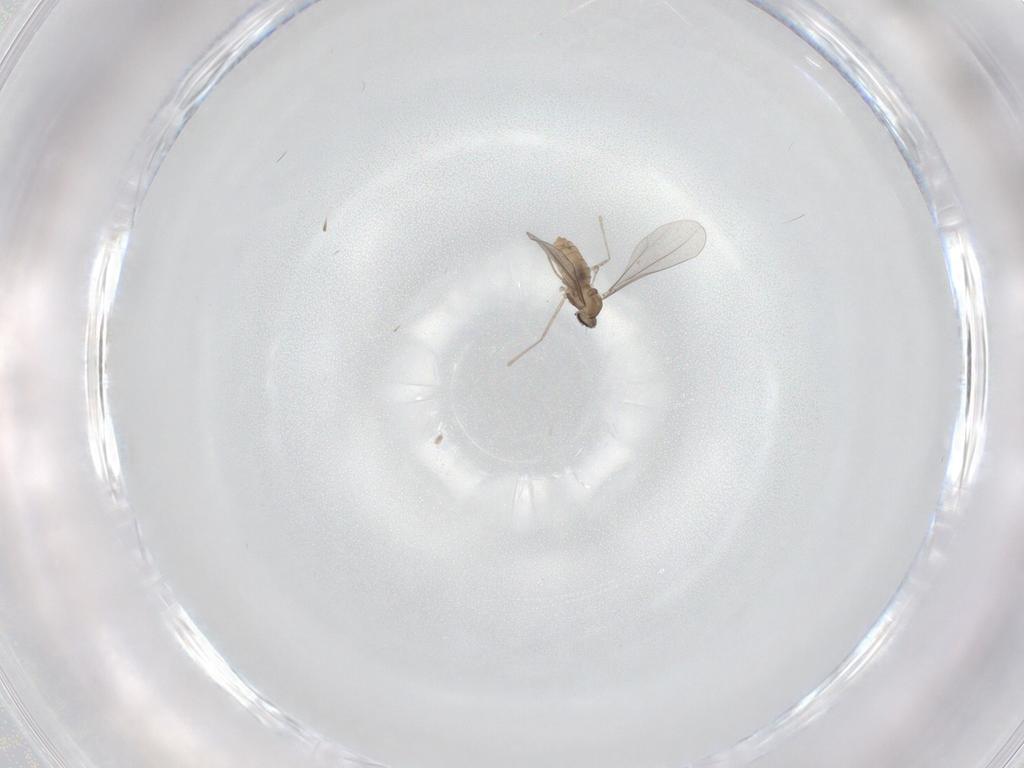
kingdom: Animalia
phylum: Arthropoda
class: Insecta
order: Diptera
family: Cecidomyiidae
